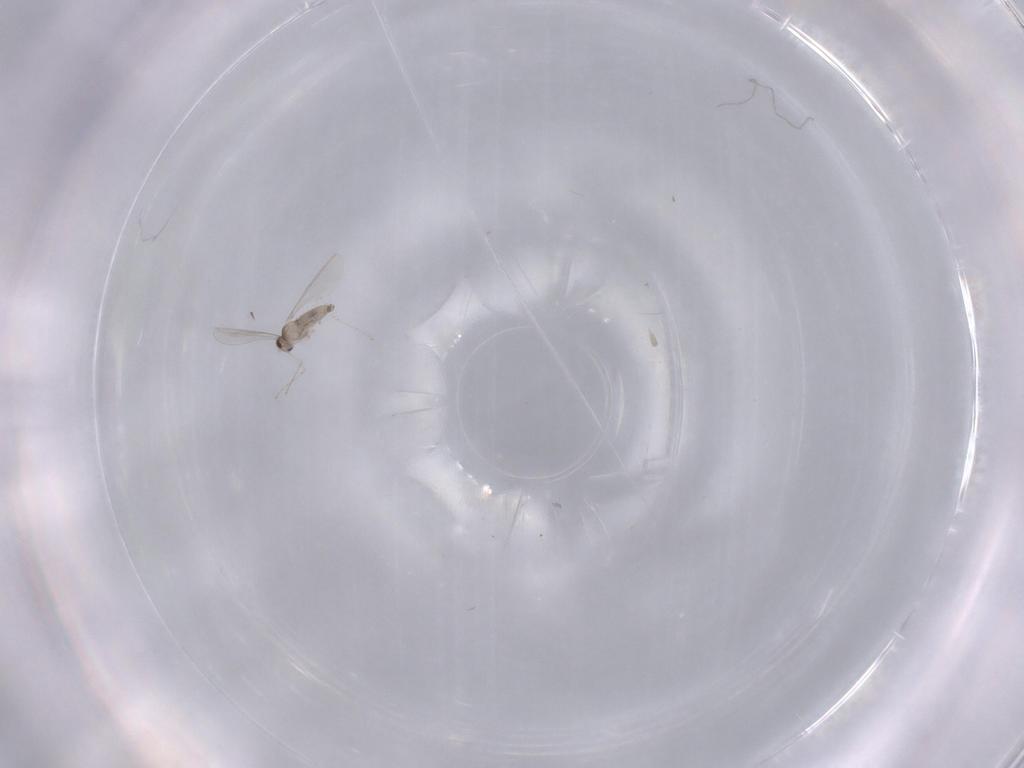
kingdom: Animalia
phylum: Arthropoda
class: Insecta
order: Diptera
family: Cecidomyiidae
